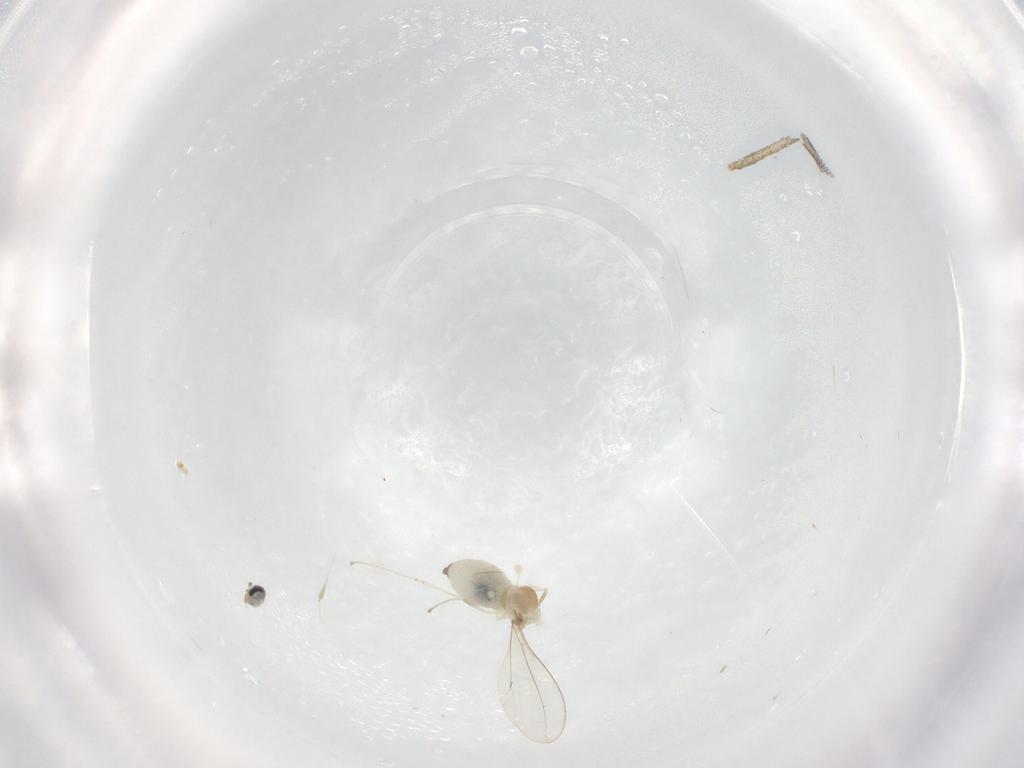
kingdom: Animalia
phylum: Arthropoda
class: Insecta
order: Diptera
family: Cecidomyiidae
